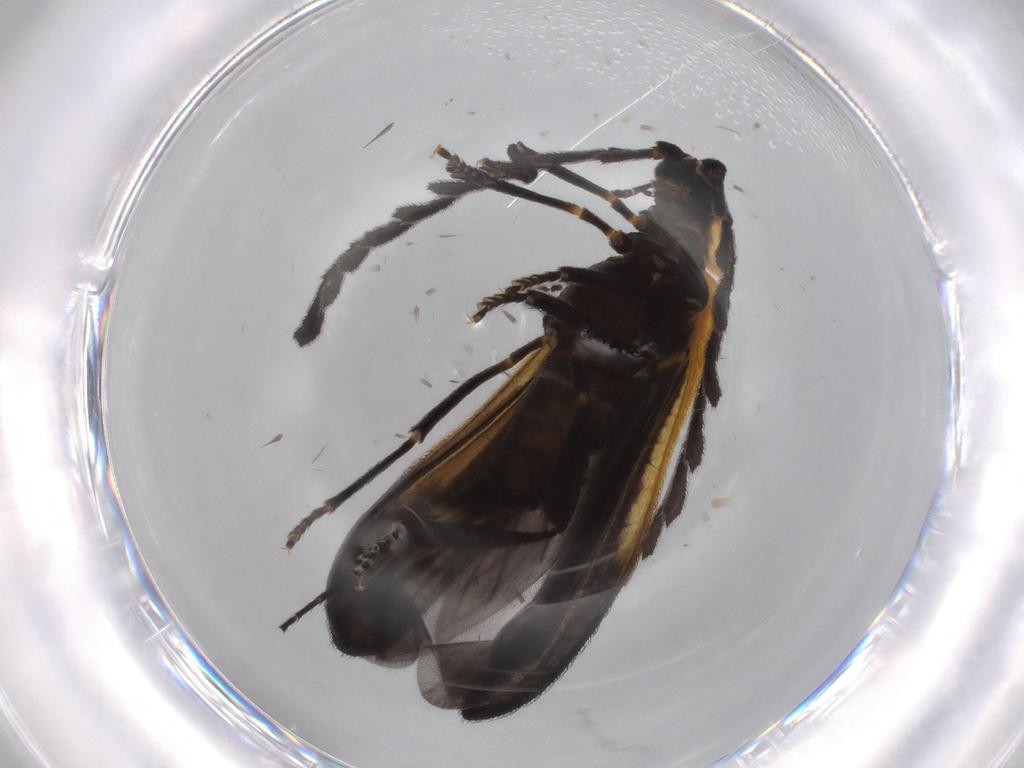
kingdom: Animalia
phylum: Arthropoda
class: Insecta
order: Coleoptera
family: Lycidae
